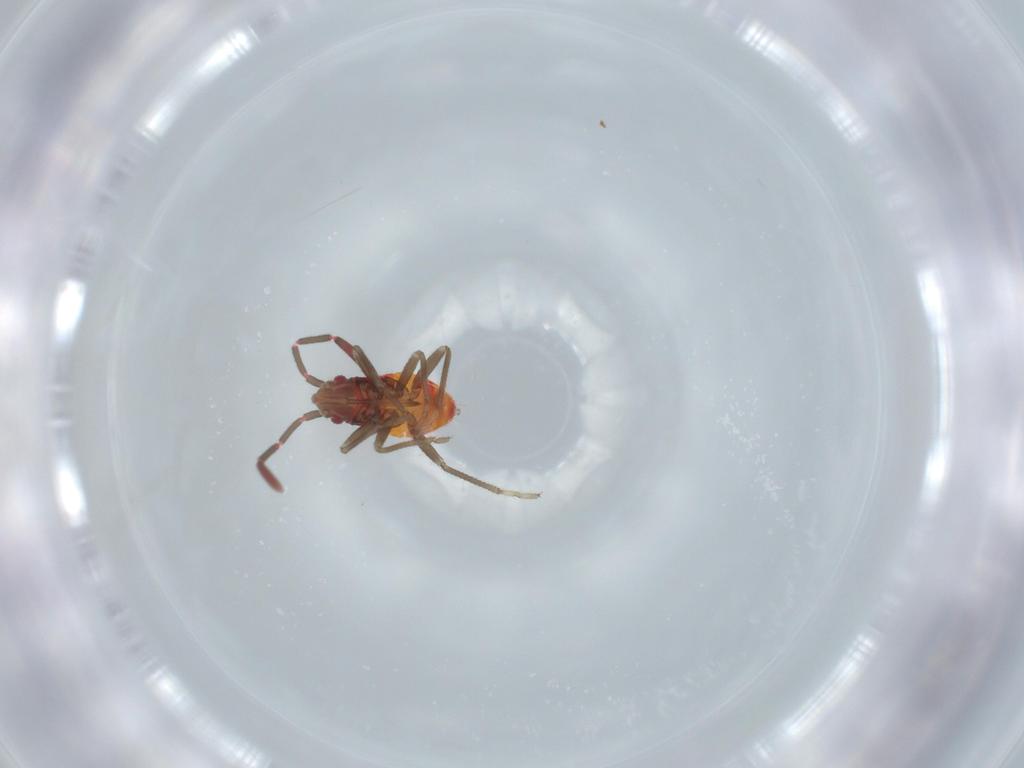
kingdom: Animalia
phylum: Arthropoda
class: Insecta
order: Hemiptera
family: Rhyparochromidae
